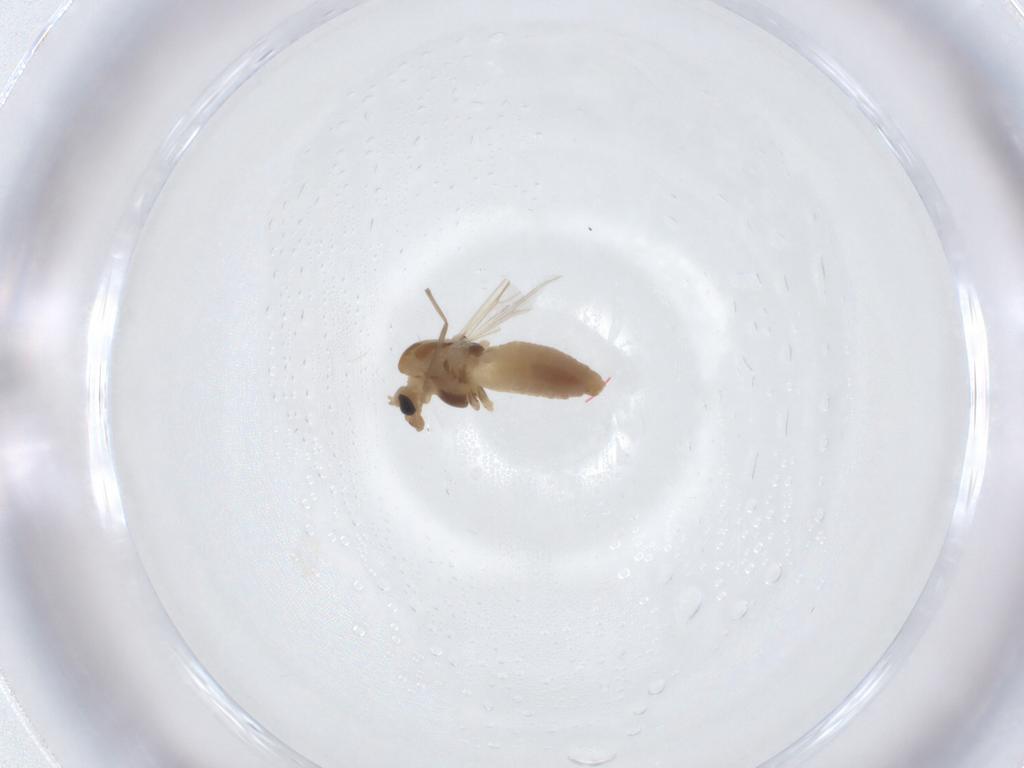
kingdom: Animalia
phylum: Arthropoda
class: Insecta
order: Diptera
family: Chironomidae
